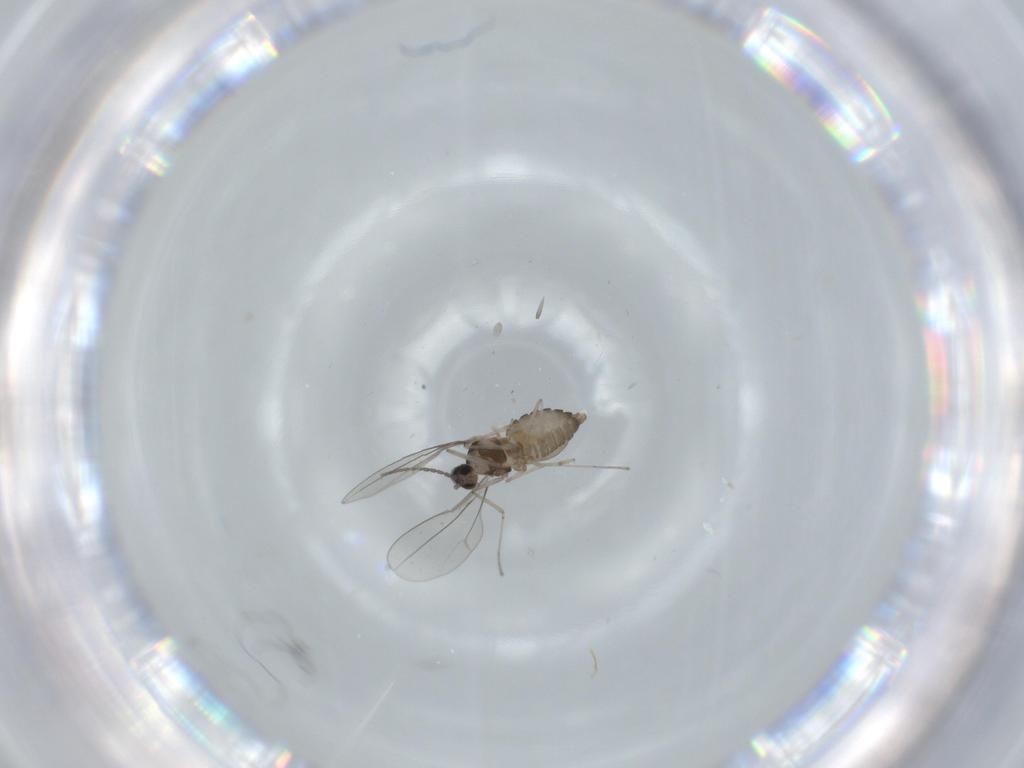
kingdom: Animalia
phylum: Arthropoda
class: Insecta
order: Diptera
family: Cecidomyiidae
